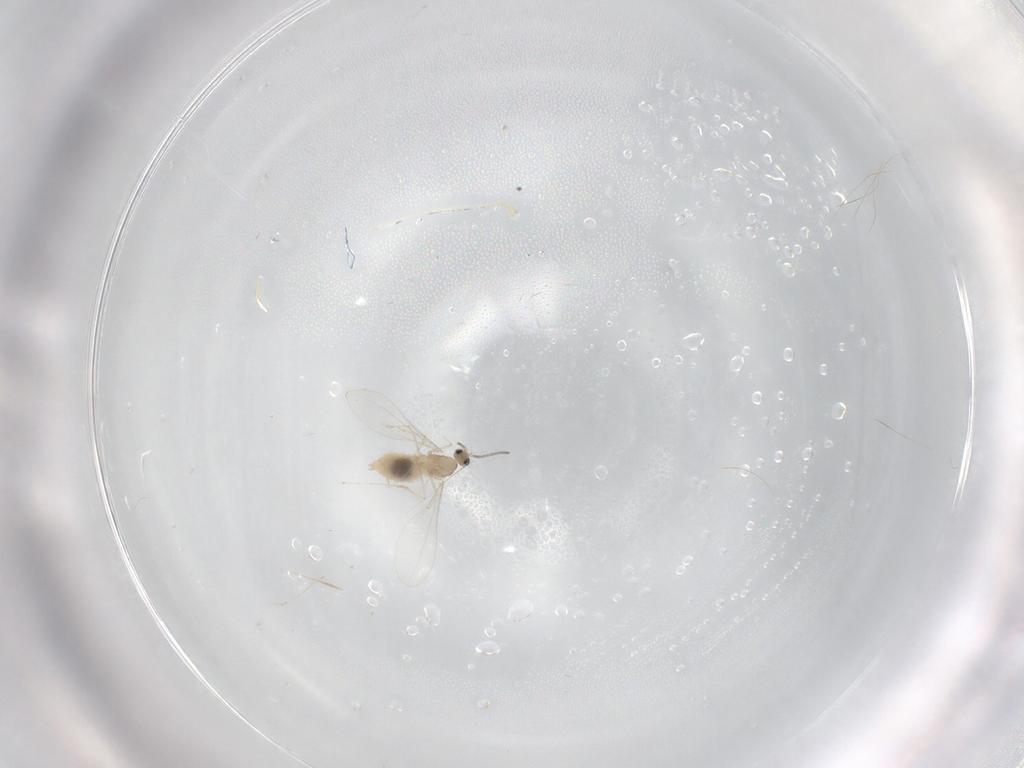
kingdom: Animalia
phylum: Arthropoda
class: Insecta
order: Diptera
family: Cecidomyiidae
